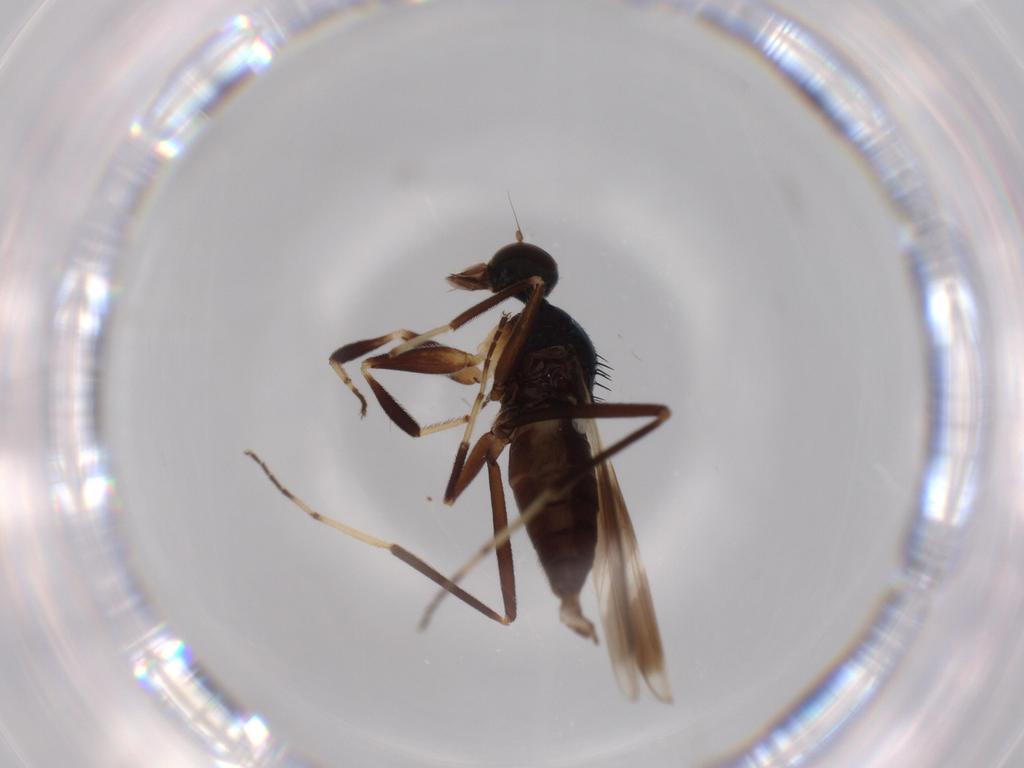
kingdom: Animalia
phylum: Arthropoda
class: Insecta
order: Diptera
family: Hybotidae
